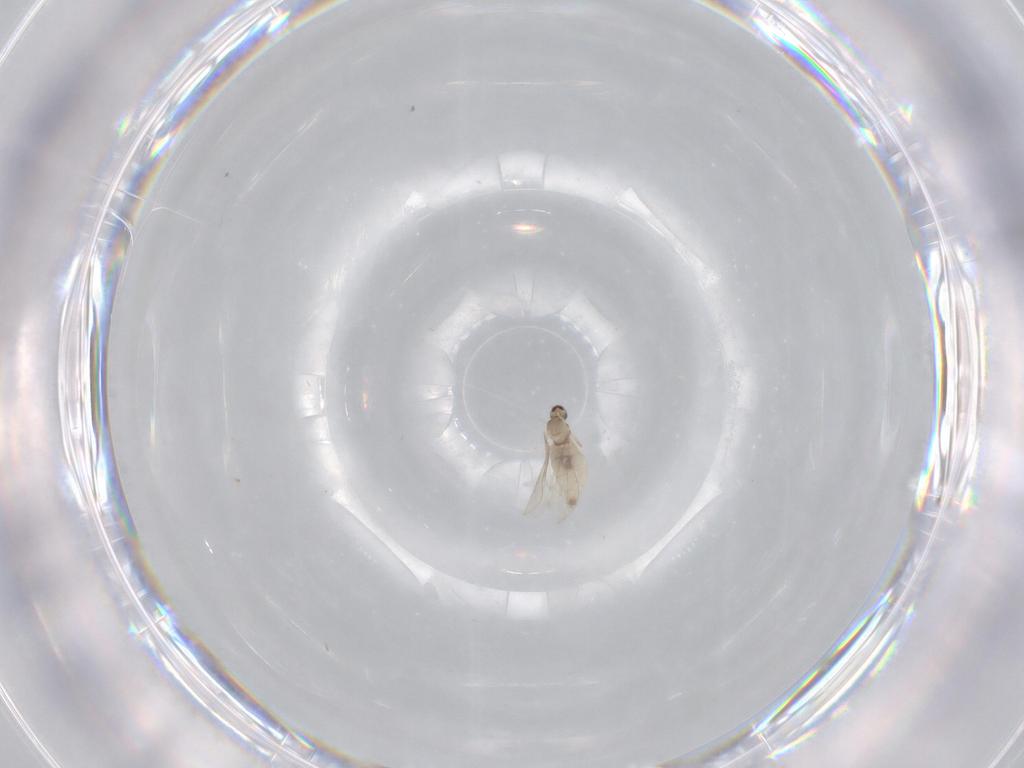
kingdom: Animalia
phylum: Arthropoda
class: Insecta
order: Diptera
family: Cecidomyiidae
